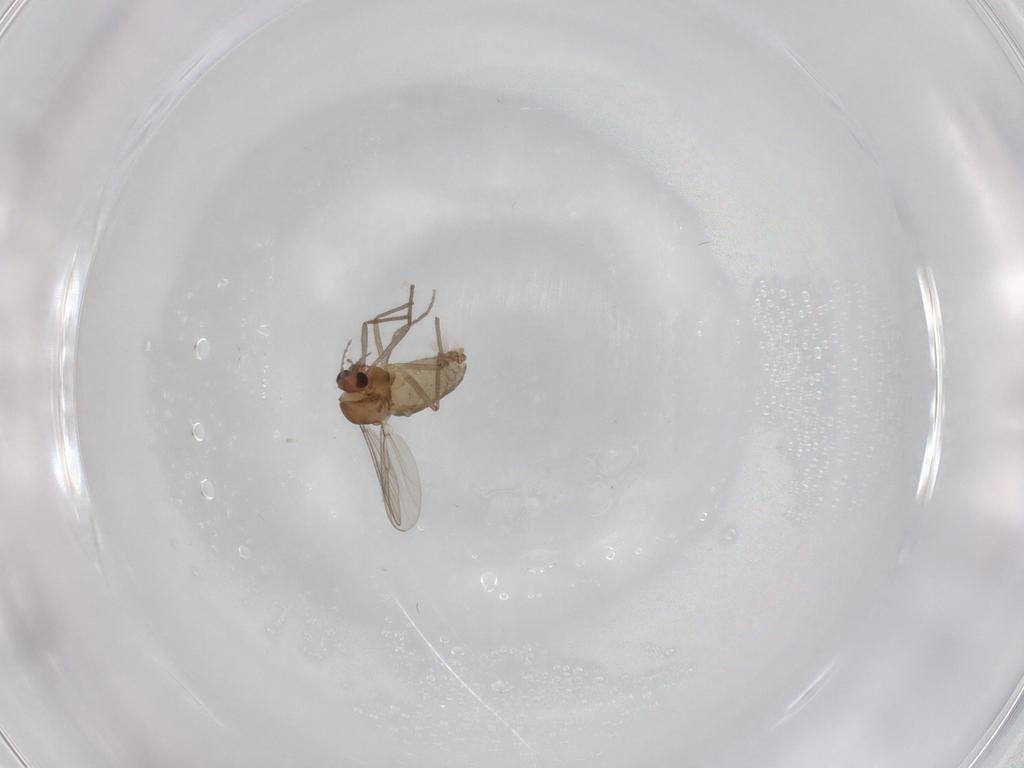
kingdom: Animalia
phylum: Arthropoda
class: Insecta
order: Diptera
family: Chironomidae
